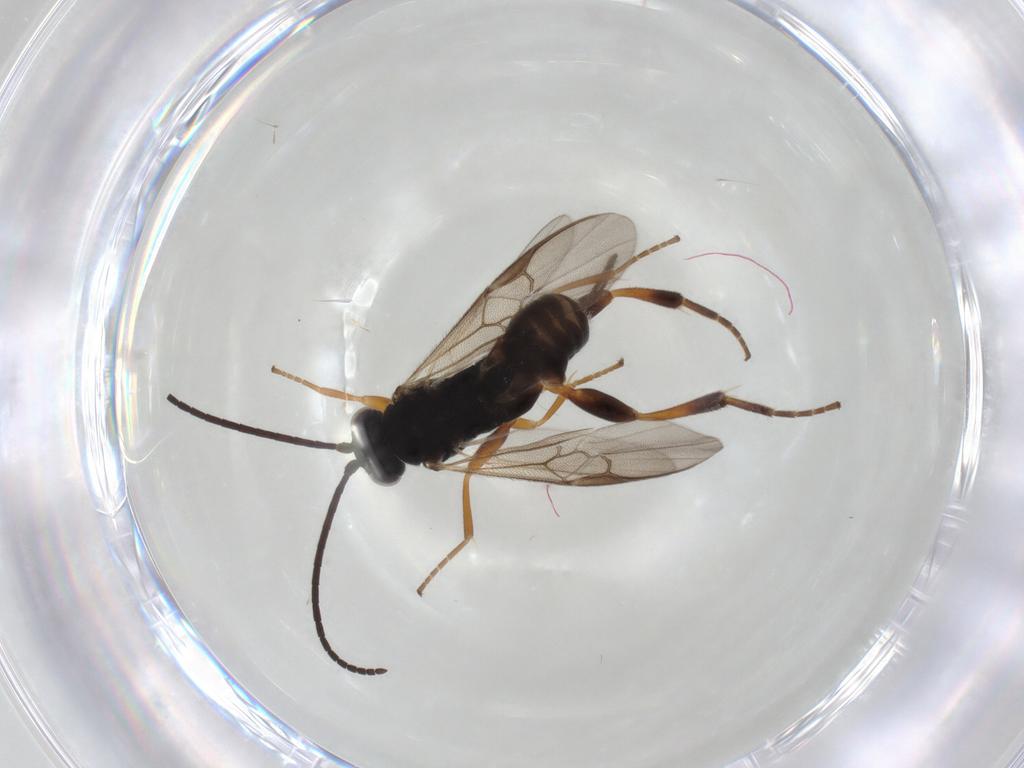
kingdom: Animalia
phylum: Arthropoda
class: Insecta
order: Hymenoptera
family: Braconidae
